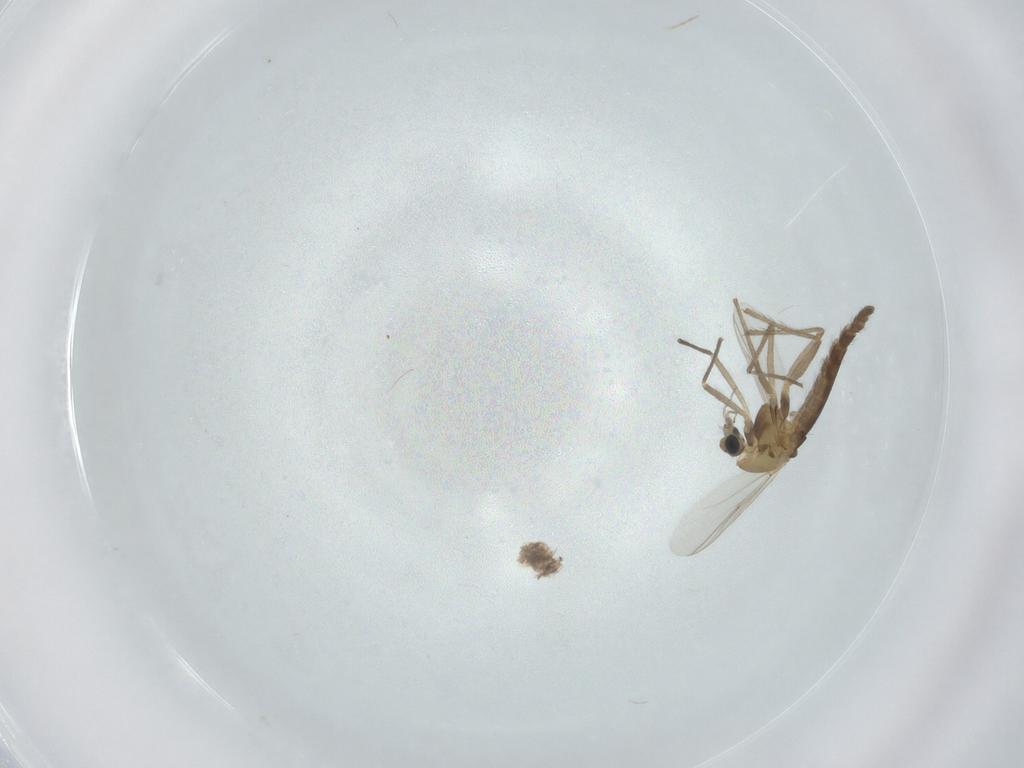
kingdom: Animalia
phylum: Arthropoda
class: Insecta
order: Diptera
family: Chironomidae
